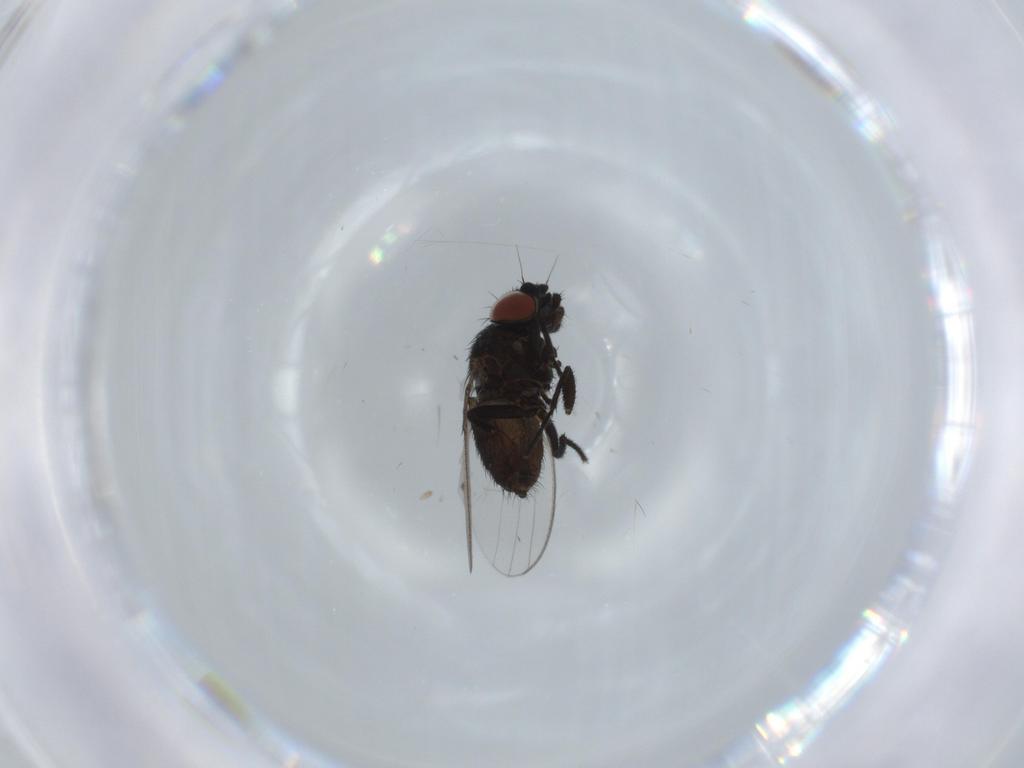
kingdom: Animalia
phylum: Arthropoda
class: Insecta
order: Diptera
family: Milichiidae
